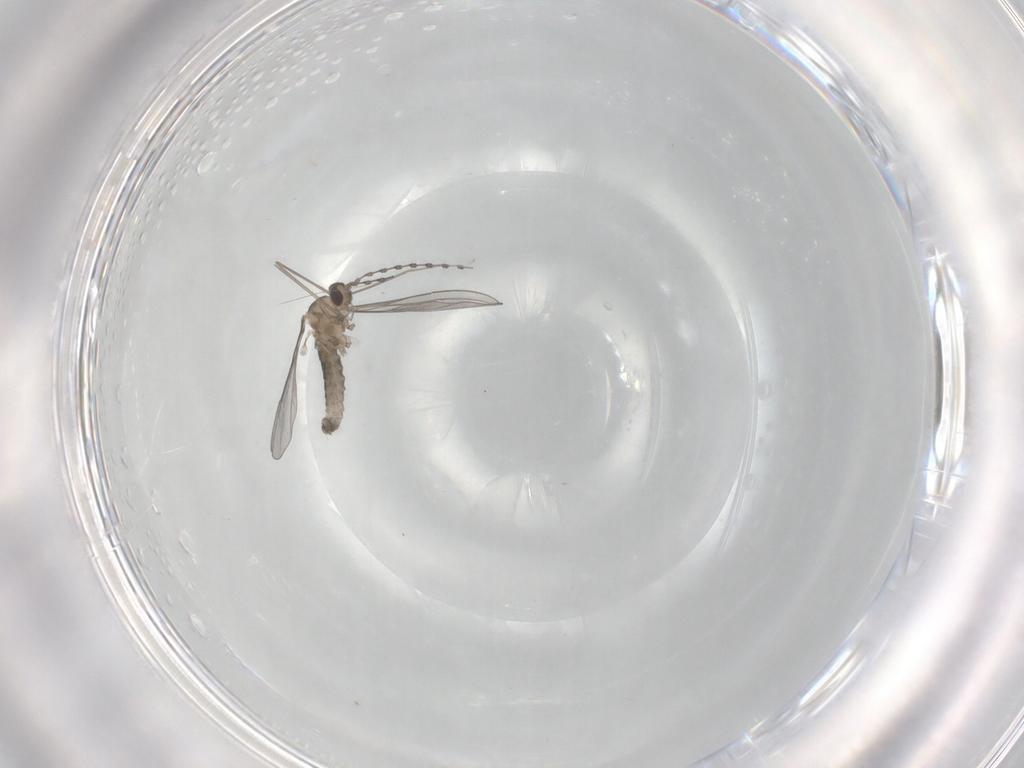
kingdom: Animalia
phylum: Arthropoda
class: Insecta
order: Diptera
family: Cecidomyiidae
